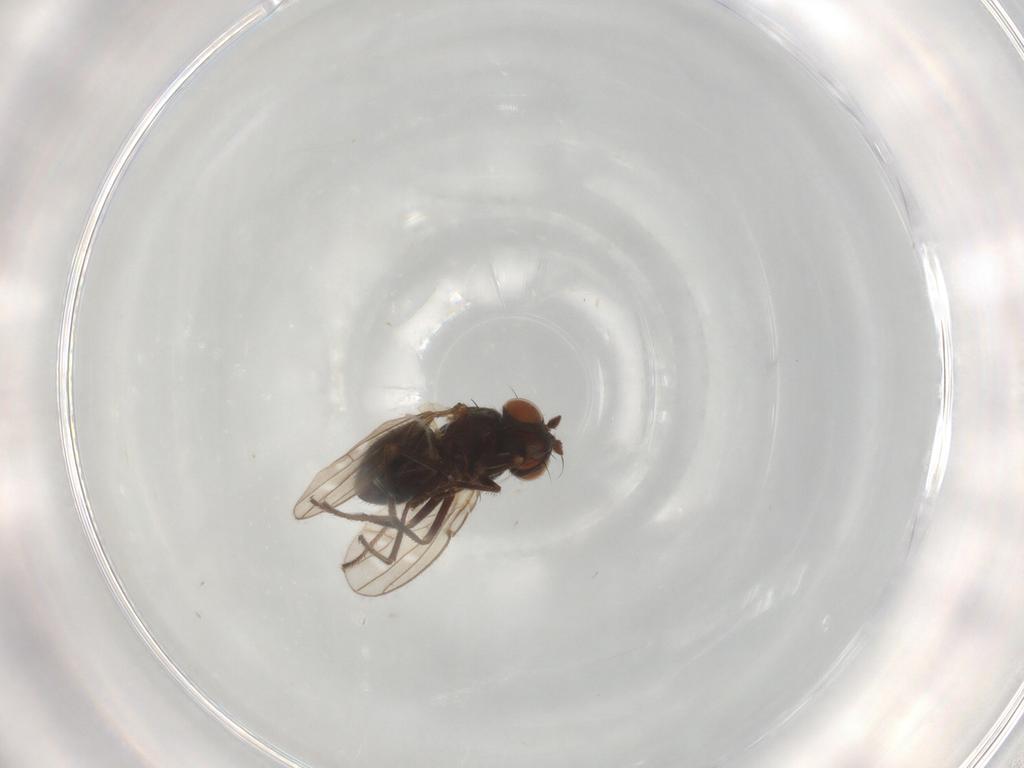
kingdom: Animalia
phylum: Arthropoda
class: Insecta
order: Diptera
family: Ephydridae
